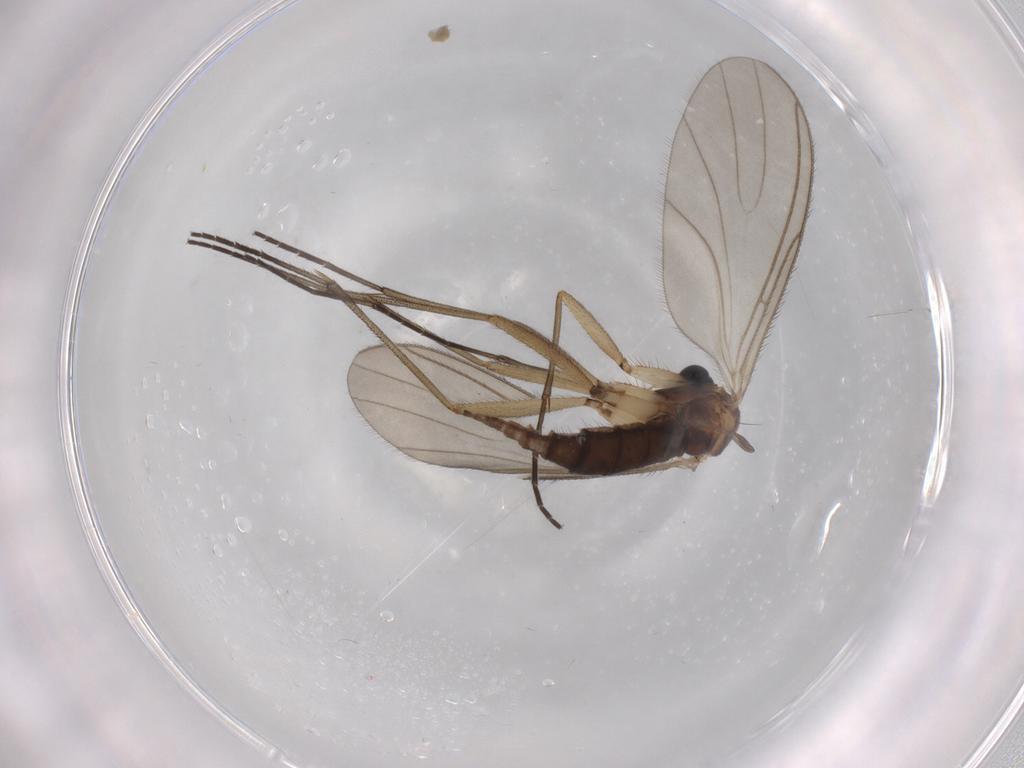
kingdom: Animalia
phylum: Arthropoda
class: Insecta
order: Diptera
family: Sciaridae
